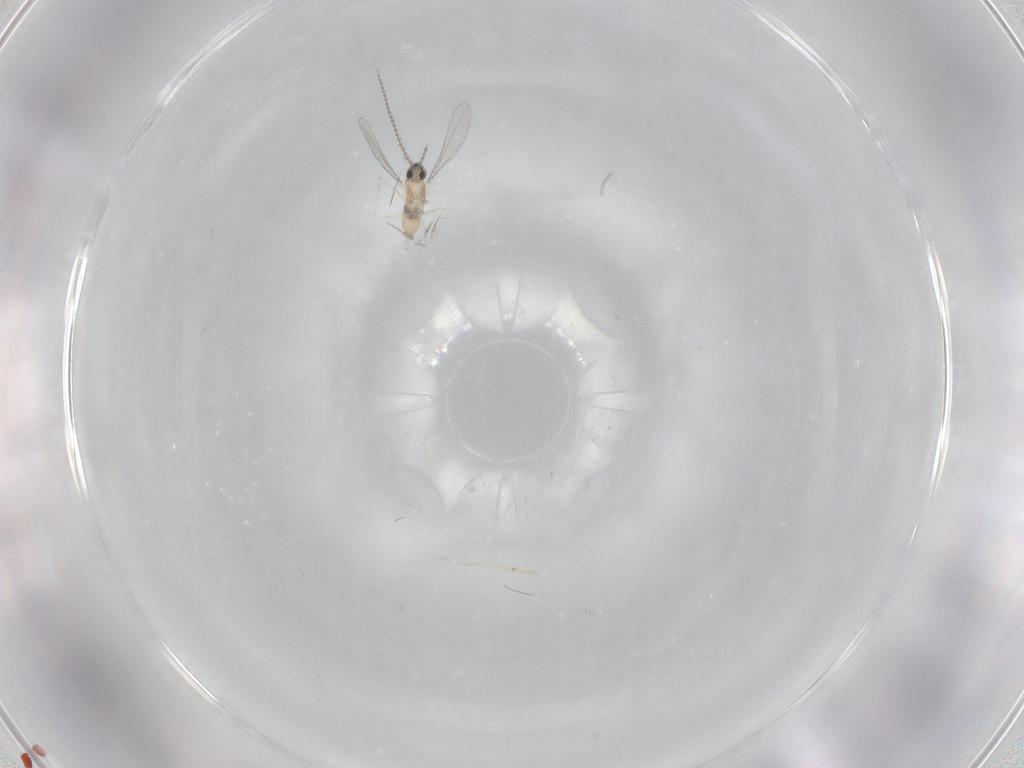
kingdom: Animalia
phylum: Arthropoda
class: Insecta
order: Diptera
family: Cecidomyiidae
